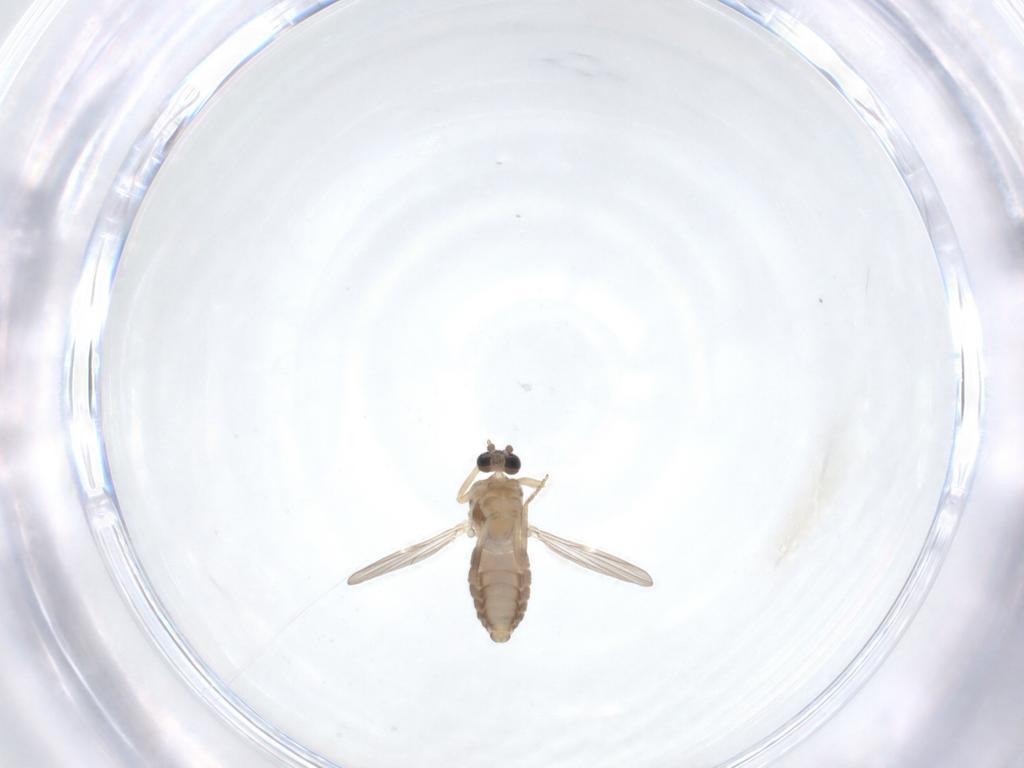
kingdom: Animalia
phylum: Arthropoda
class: Insecta
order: Diptera
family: Ceratopogonidae
